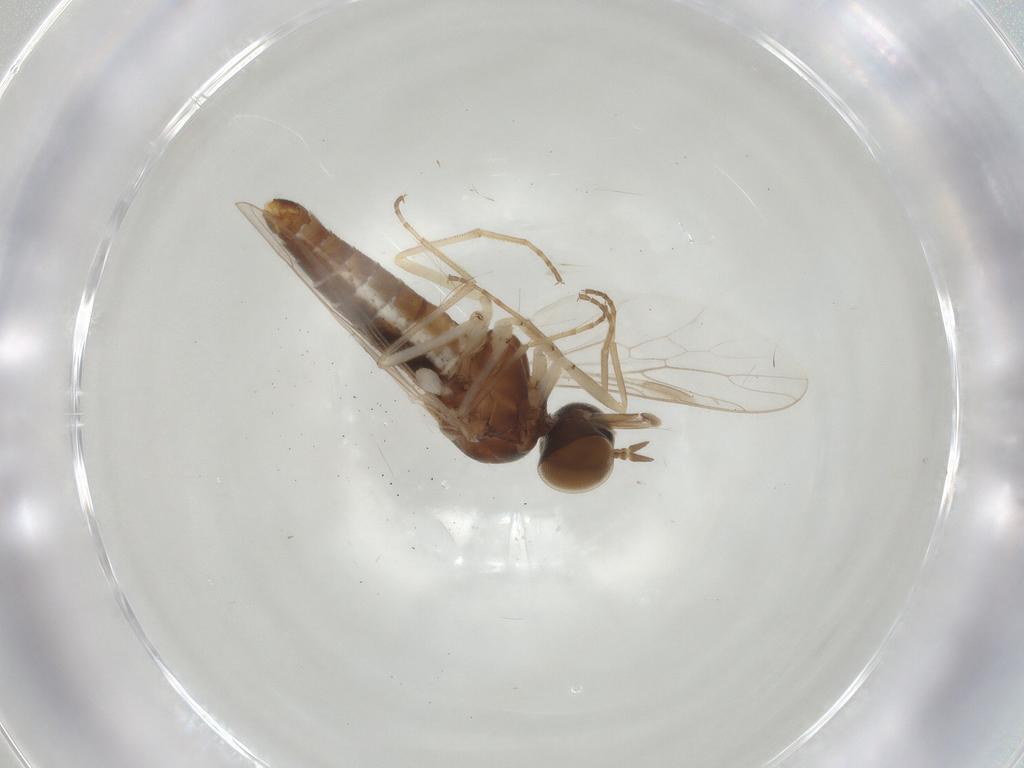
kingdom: Animalia
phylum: Arthropoda
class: Insecta
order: Diptera
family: Scenopinidae
